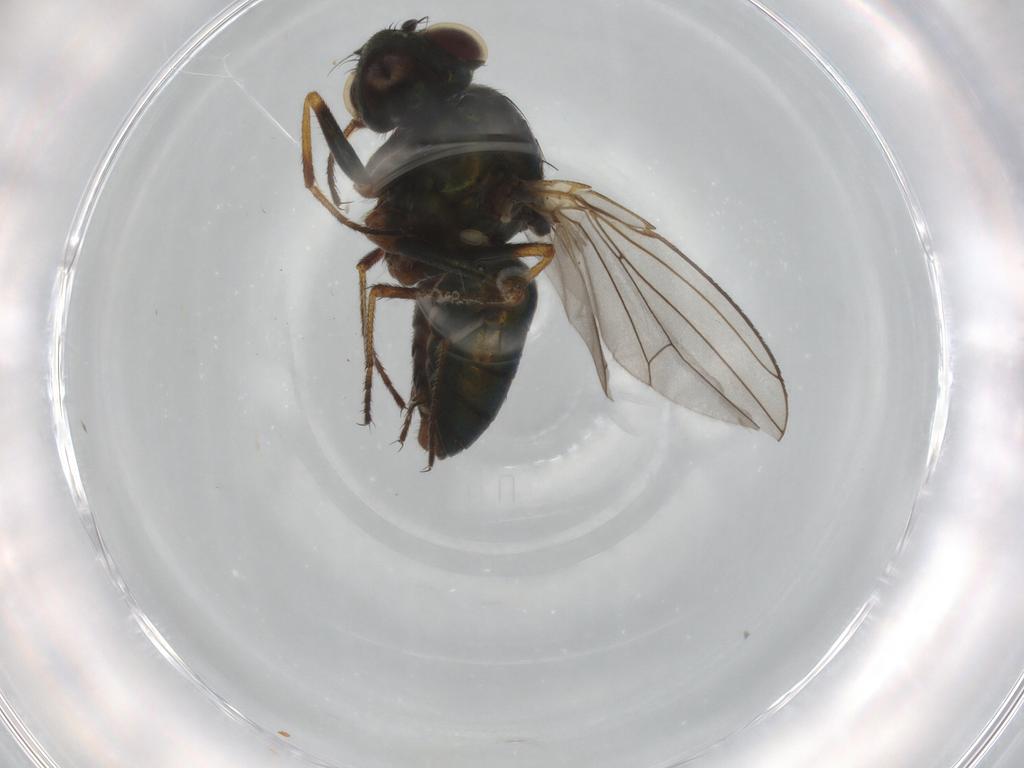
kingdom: Animalia
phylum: Arthropoda
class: Insecta
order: Diptera
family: Ephydridae
